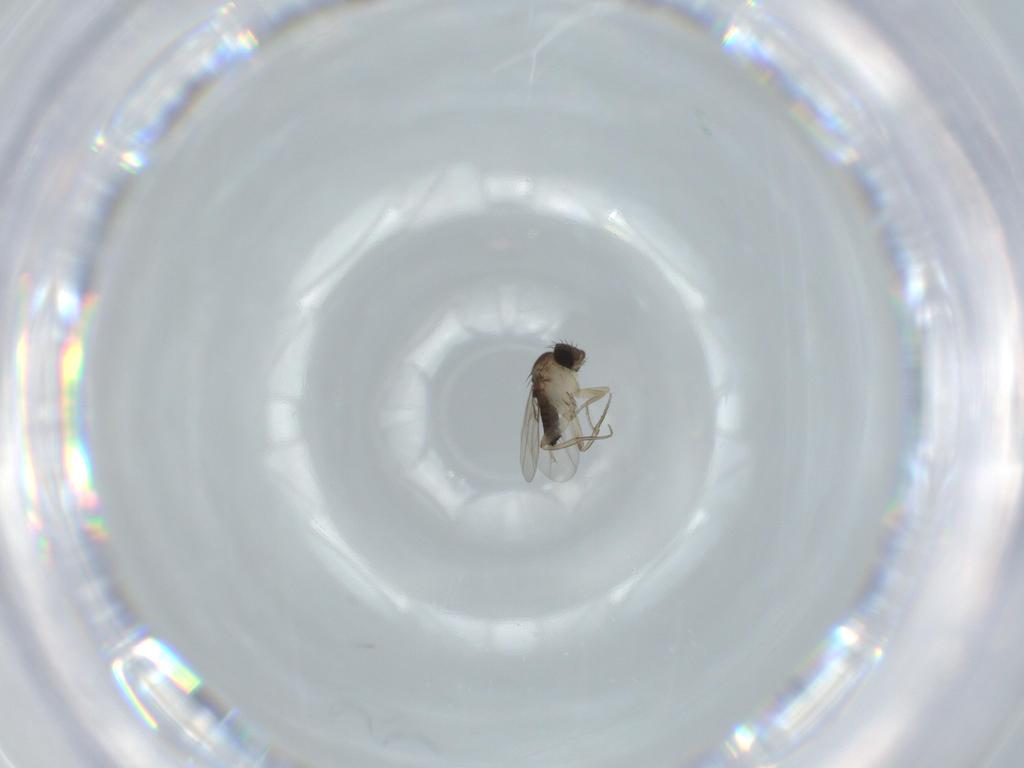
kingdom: Animalia
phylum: Arthropoda
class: Insecta
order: Diptera
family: Phoridae
